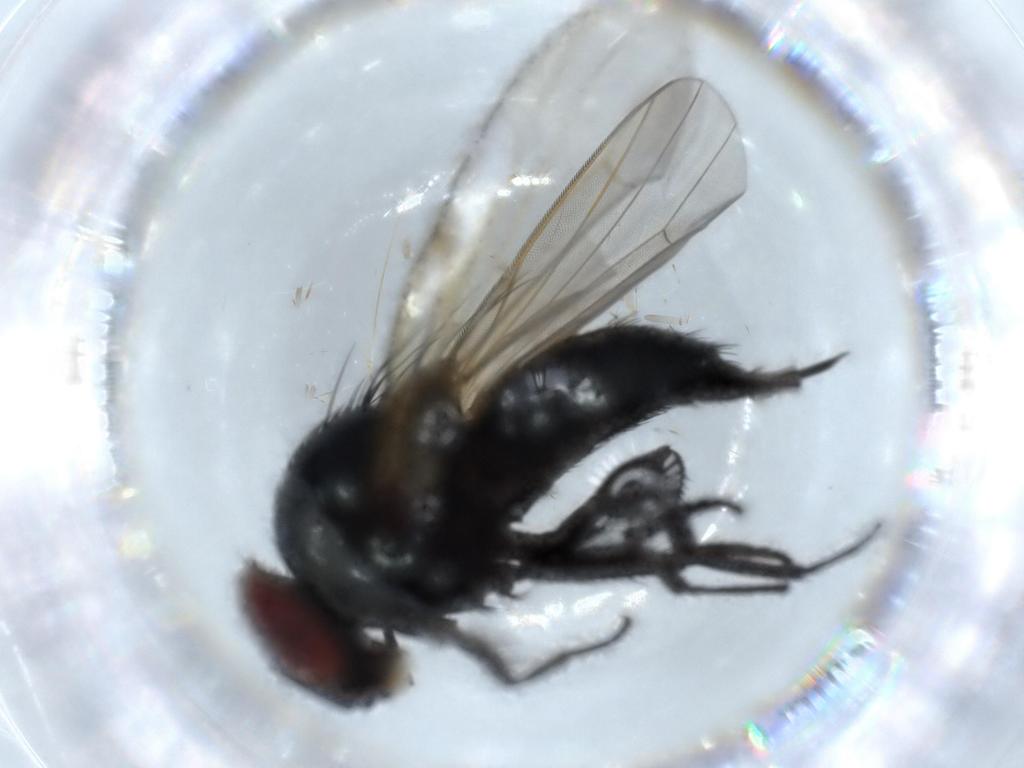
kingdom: Animalia
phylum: Arthropoda
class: Insecta
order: Diptera
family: Lonchaeidae
